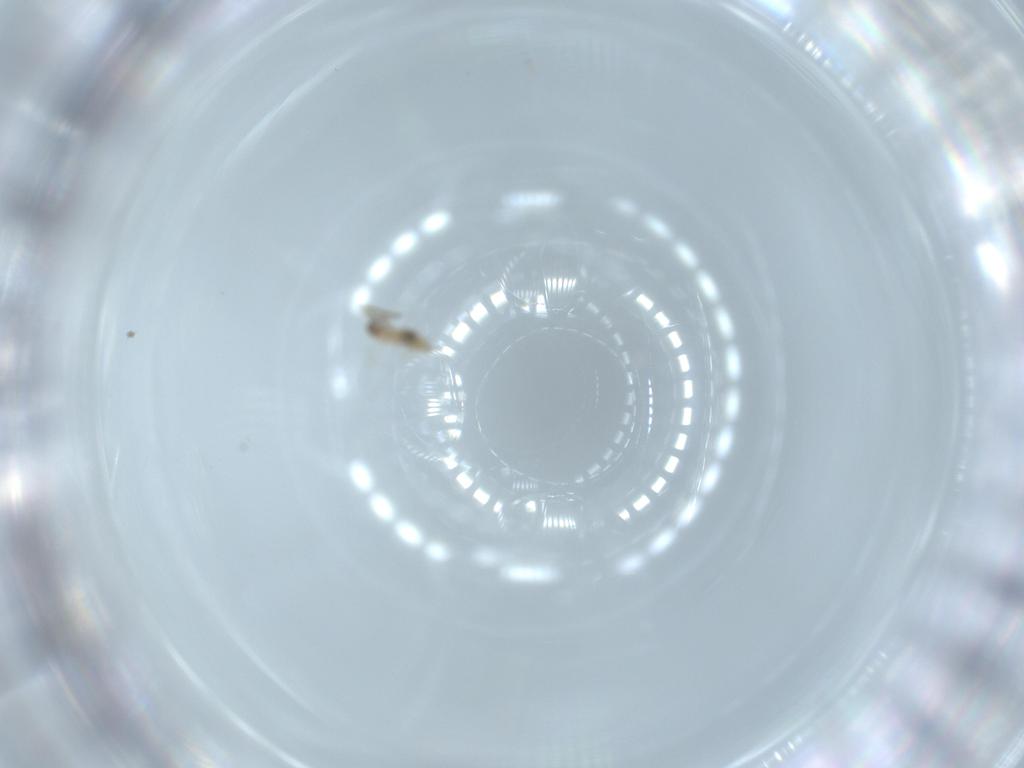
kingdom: Animalia
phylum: Arthropoda
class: Insecta
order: Diptera
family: Cecidomyiidae
